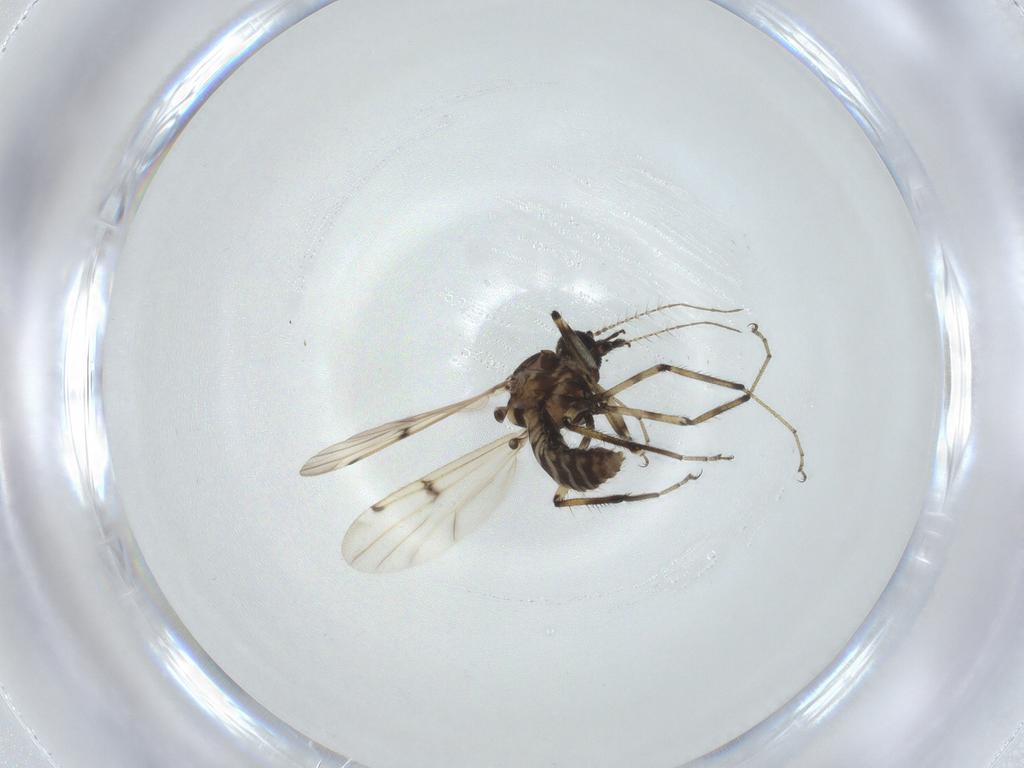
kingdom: Animalia
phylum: Arthropoda
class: Insecta
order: Diptera
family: Ceratopogonidae
